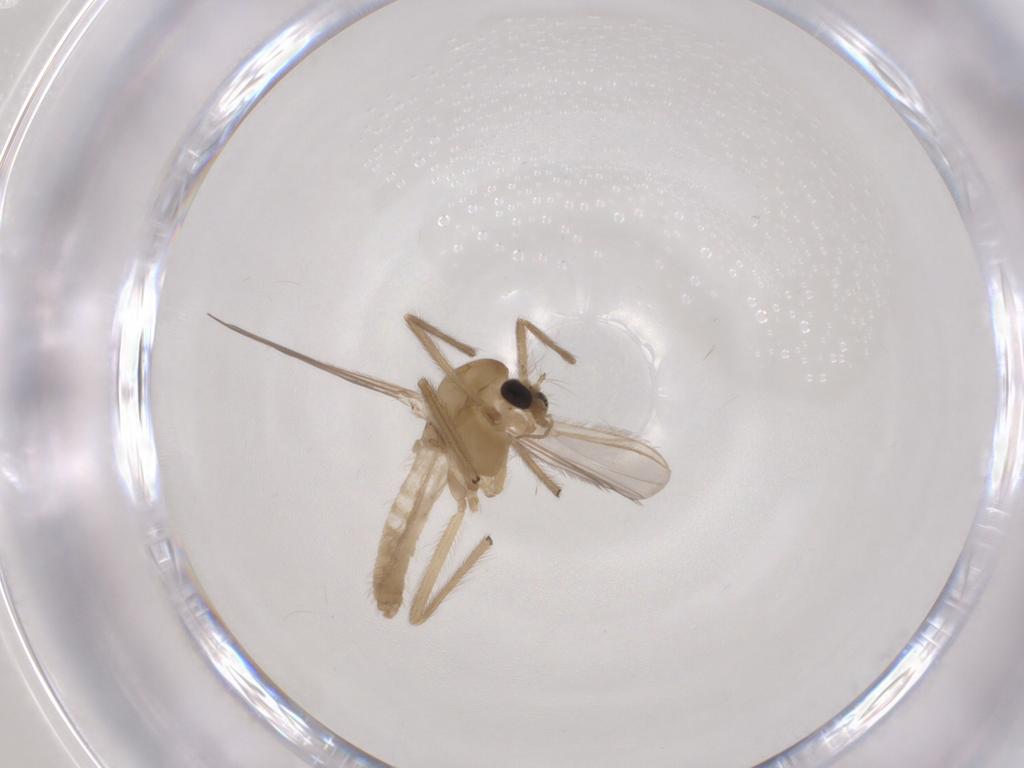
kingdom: Animalia
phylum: Arthropoda
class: Insecta
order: Diptera
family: Chironomidae
